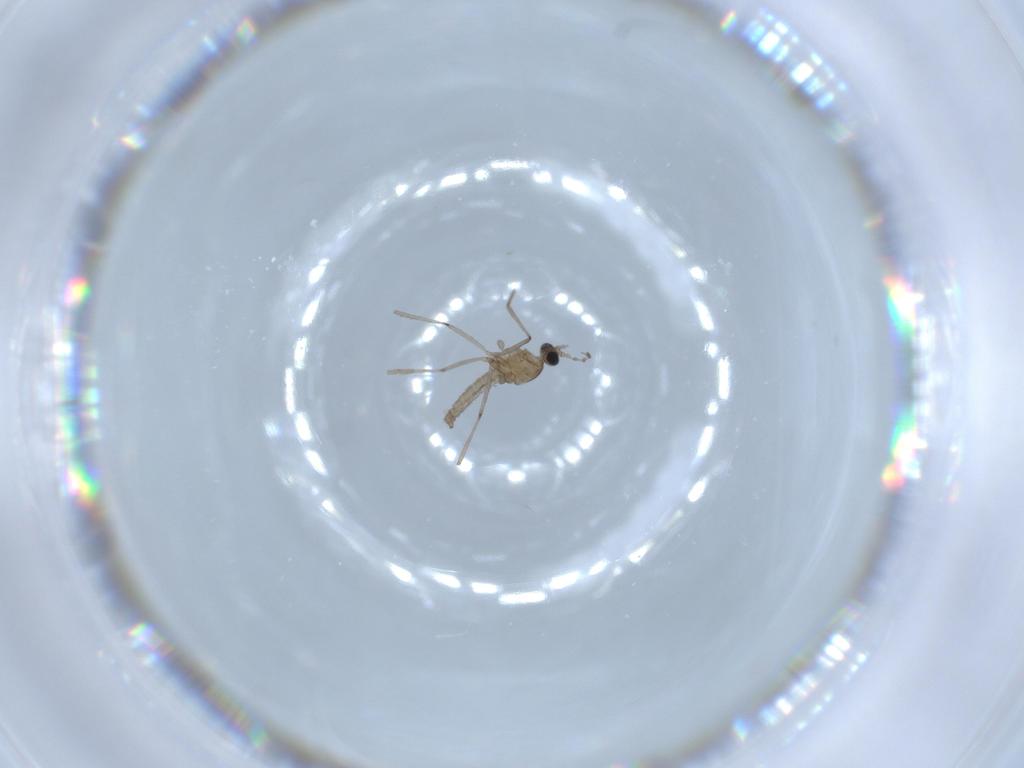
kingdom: Animalia
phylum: Arthropoda
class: Insecta
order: Diptera
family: Cecidomyiidae
